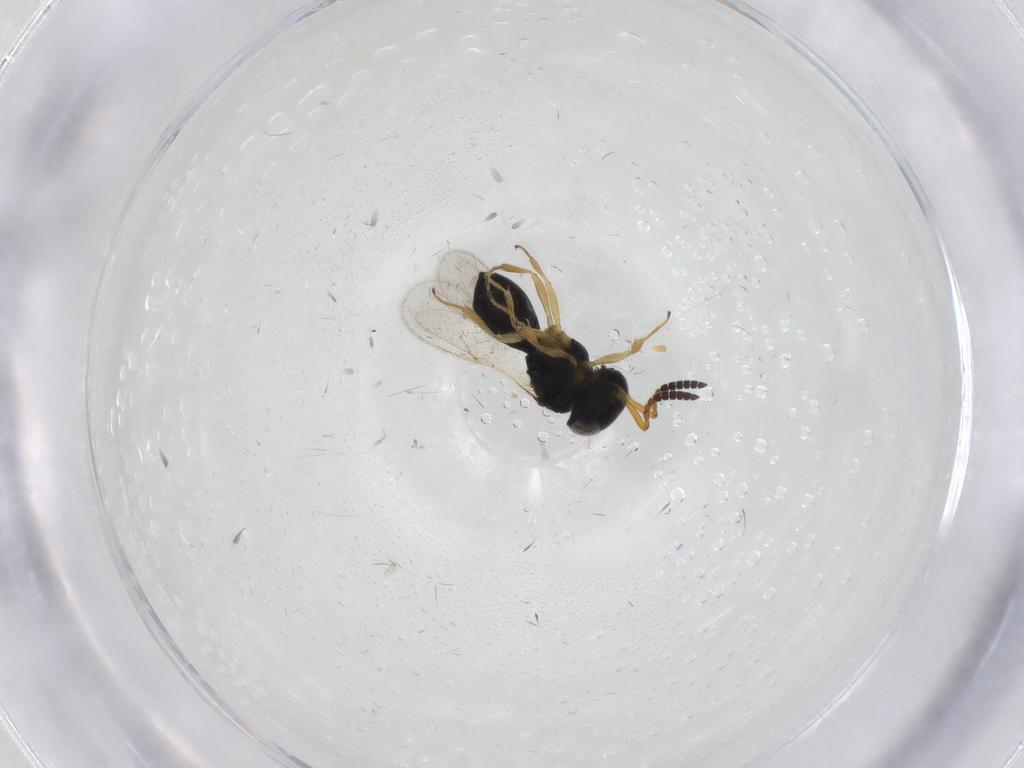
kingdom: Animalia
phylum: Arthropoda
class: Insecta
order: Hymenoptera
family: Scelionidae
